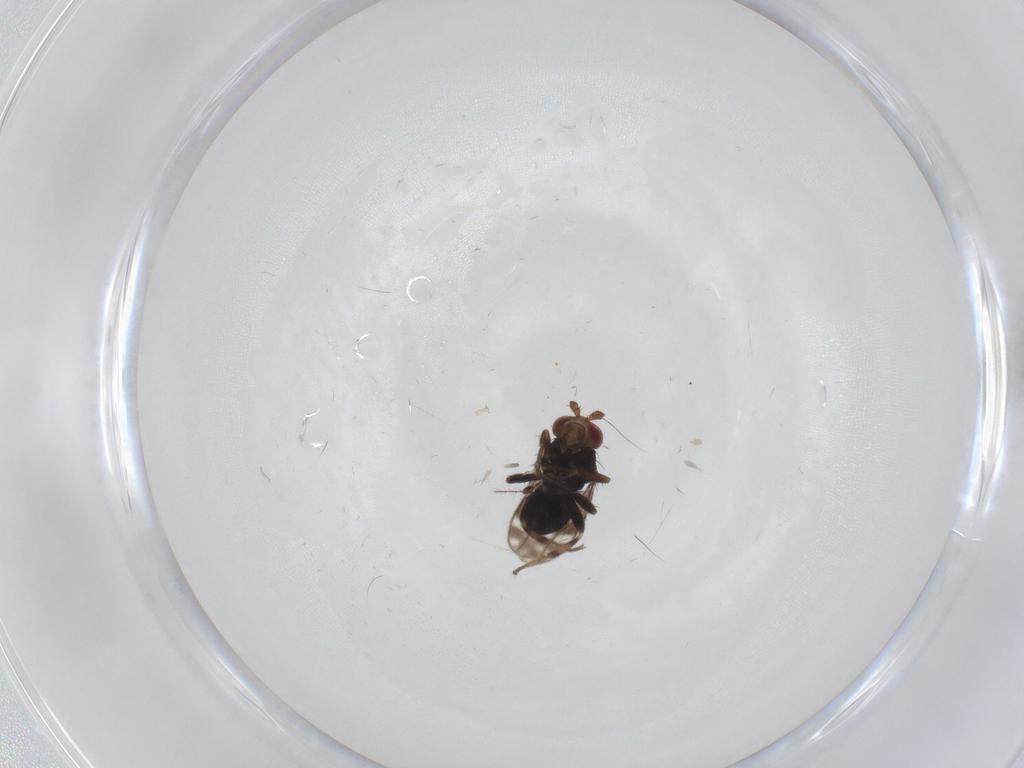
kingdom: Animalia
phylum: Arthropoda
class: Insecta
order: Diptera
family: Sphaeroceridae
